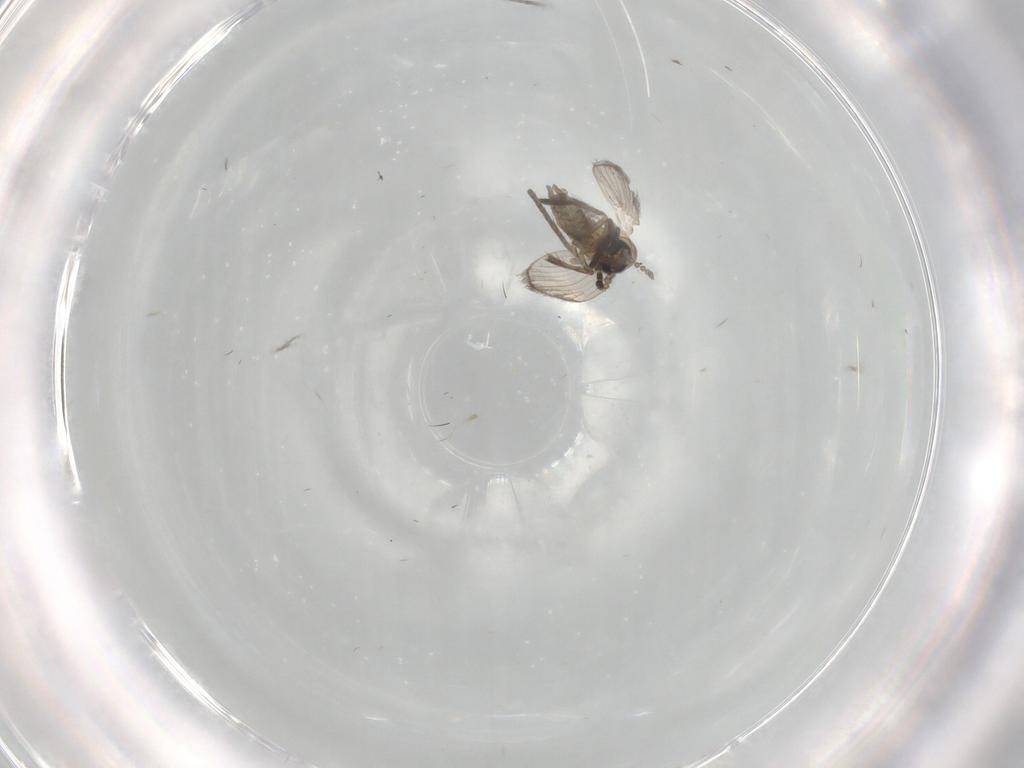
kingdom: Animalia
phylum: Arthropoda
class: Insecta
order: Diptera
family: Psychodidae
